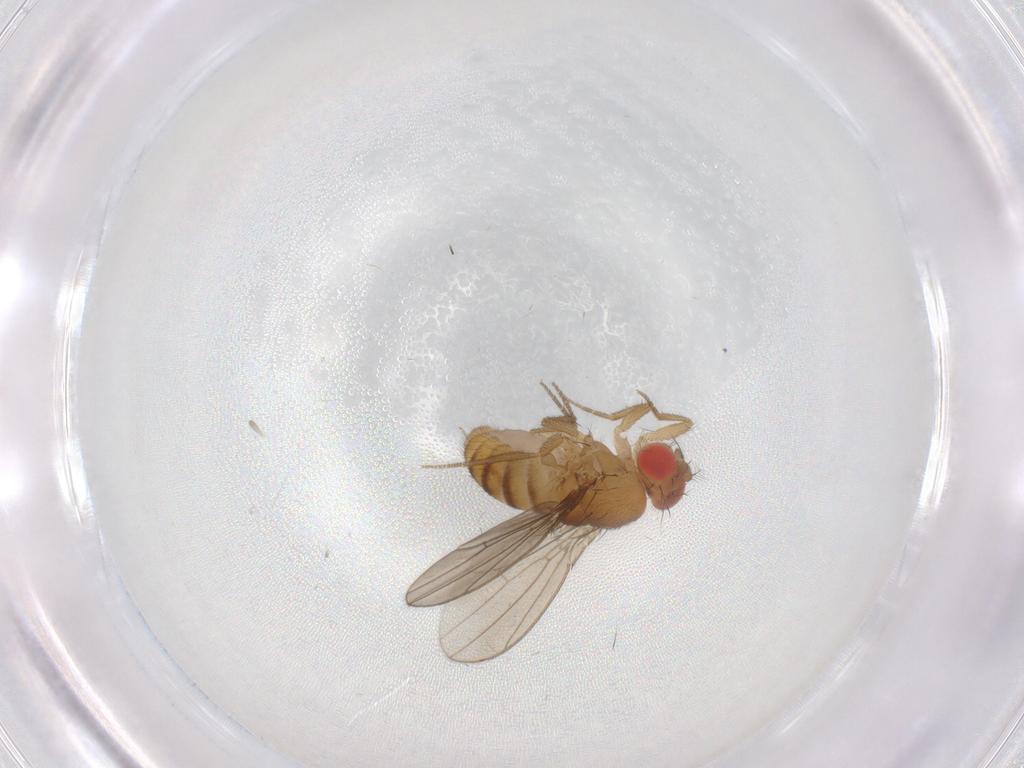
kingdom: Animalia
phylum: Arthropoda
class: Insecta
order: Diptera
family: Drosophilidae
